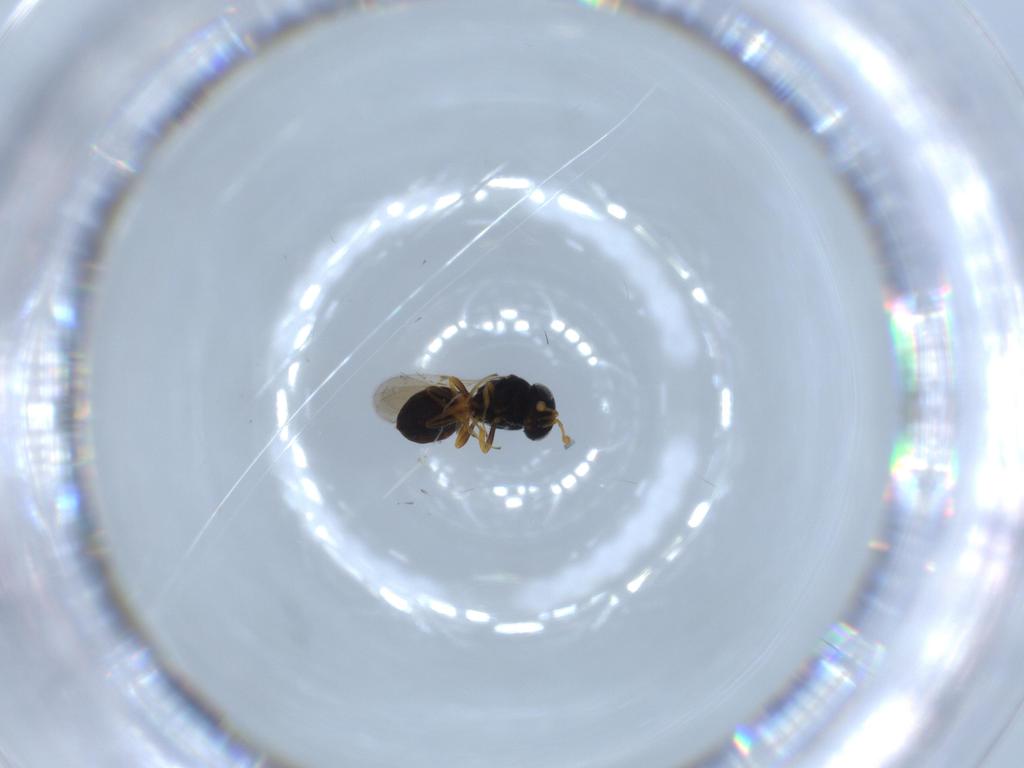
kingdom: Animalia
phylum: Arthropoda
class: Insecta
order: Hymenoptera
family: Scelionidae
